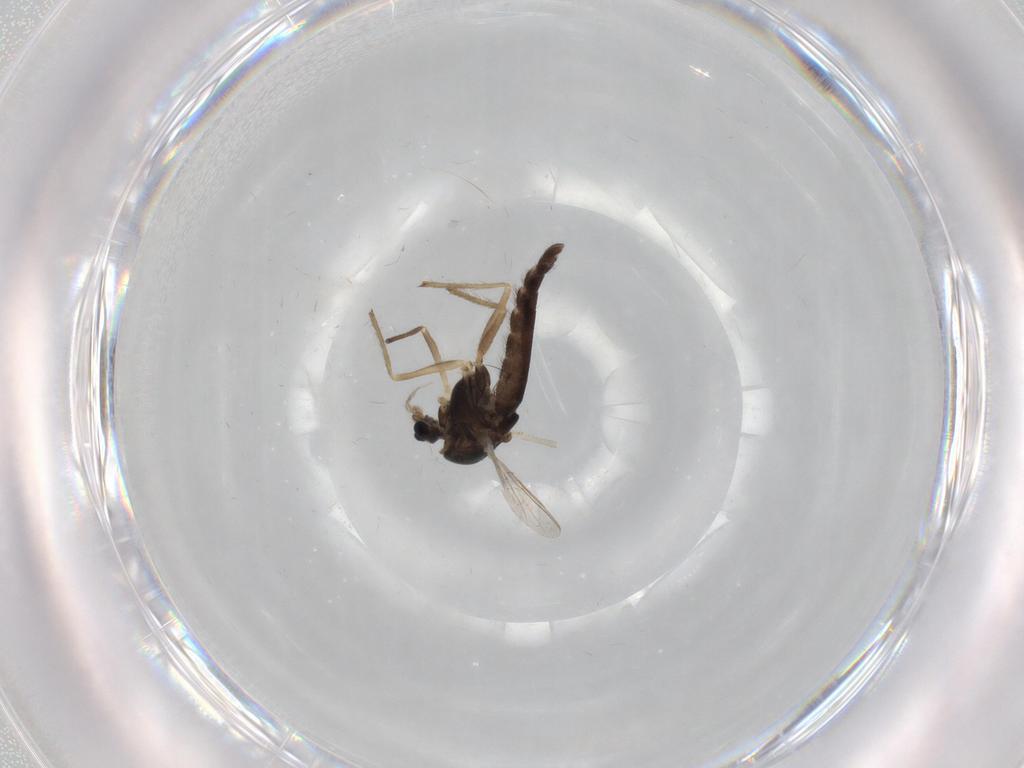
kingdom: Animalia
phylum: Arthropoda
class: Insecta
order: Diptera
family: Chironomidae
